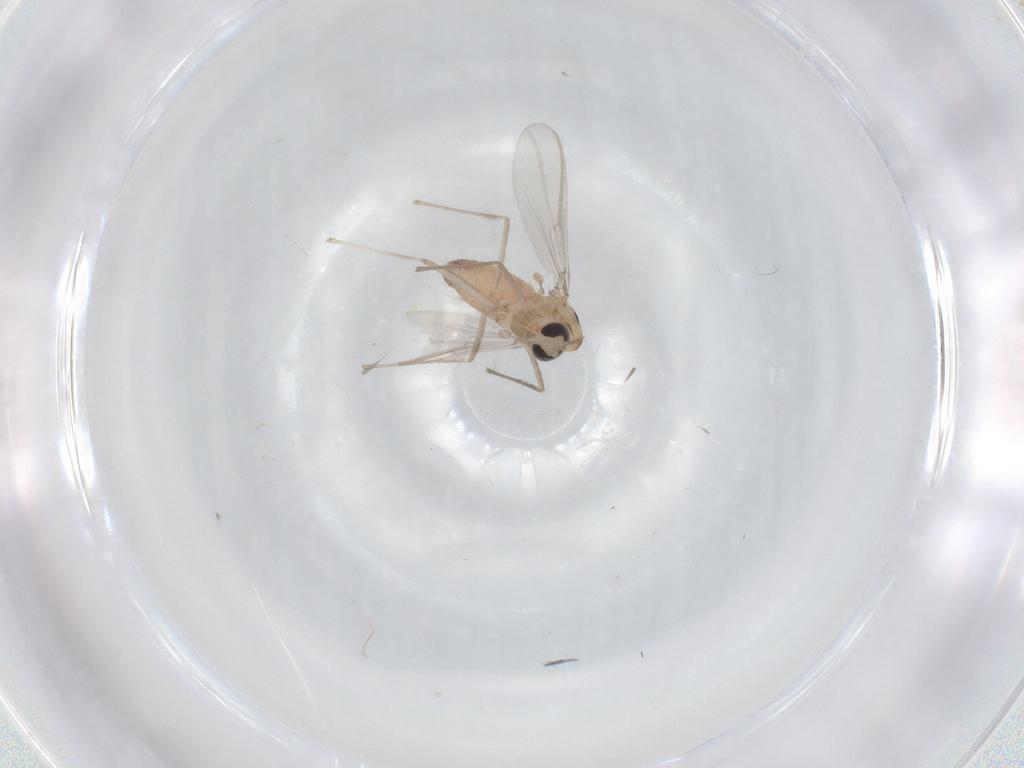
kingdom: Animalia
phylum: Arthropoda
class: Insecta
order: Diptera
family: Chironomidae
